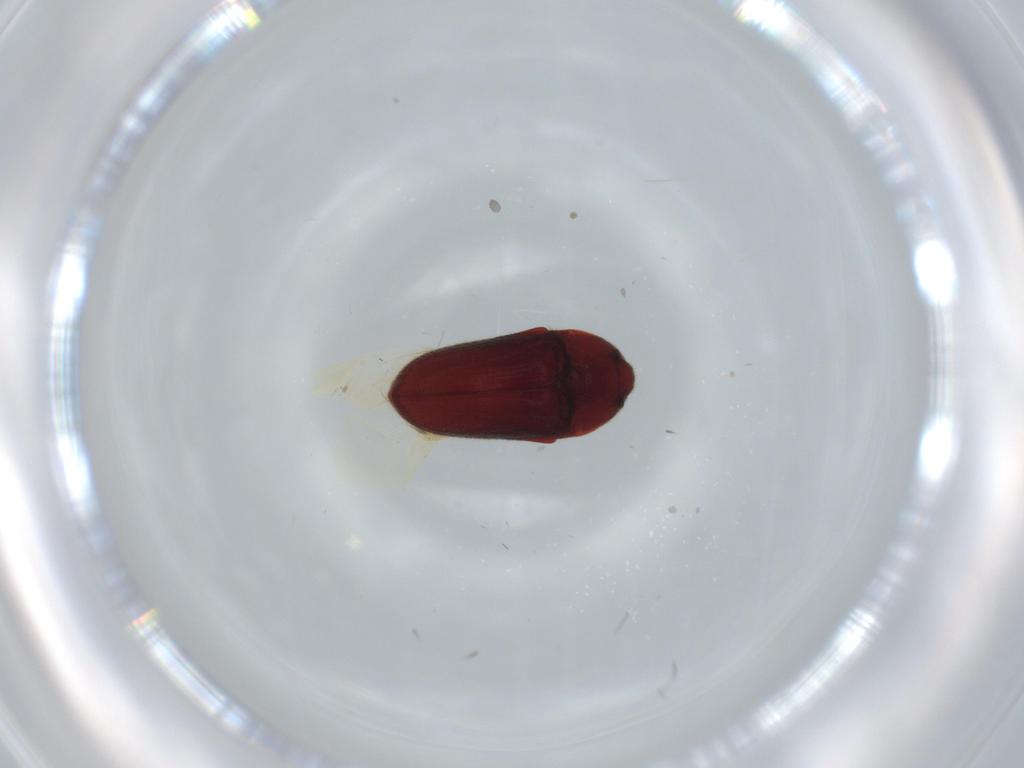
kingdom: Animalia
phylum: Arthropoda
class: Insecta
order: Coleoptera
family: Throscidae
